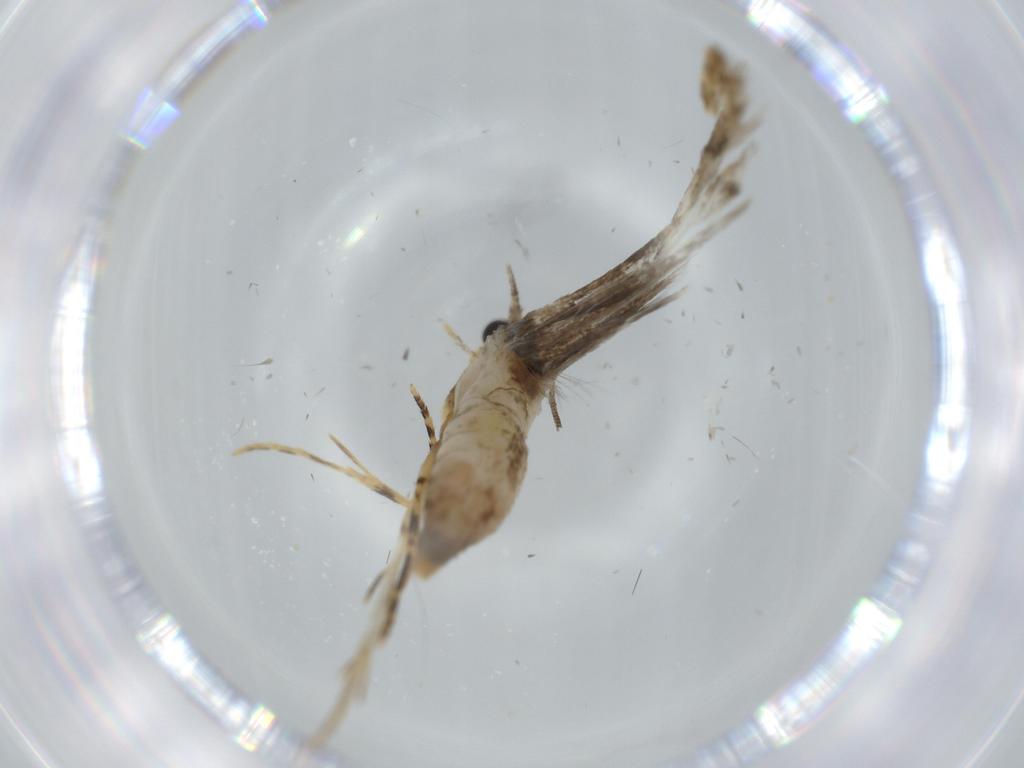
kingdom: Animalia
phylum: Arthropoda
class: Insecta
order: Lepidoptera
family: Tineidae
